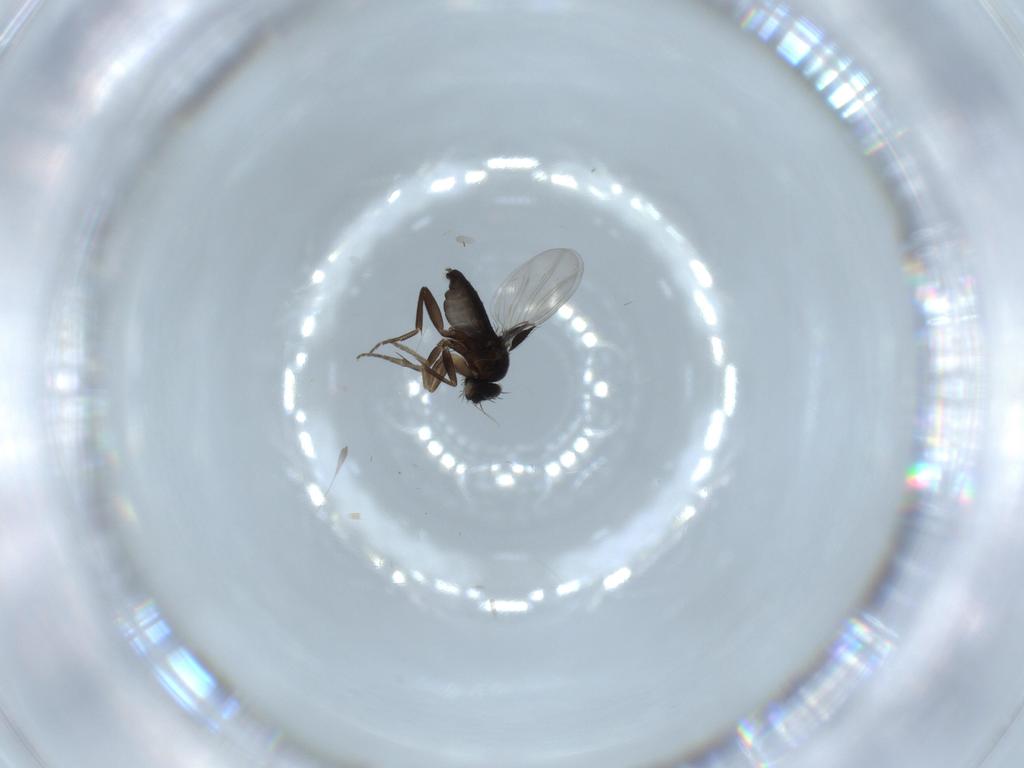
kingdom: Animalia
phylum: Arthropoda
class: Insecta
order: Diptera
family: Phoridae
